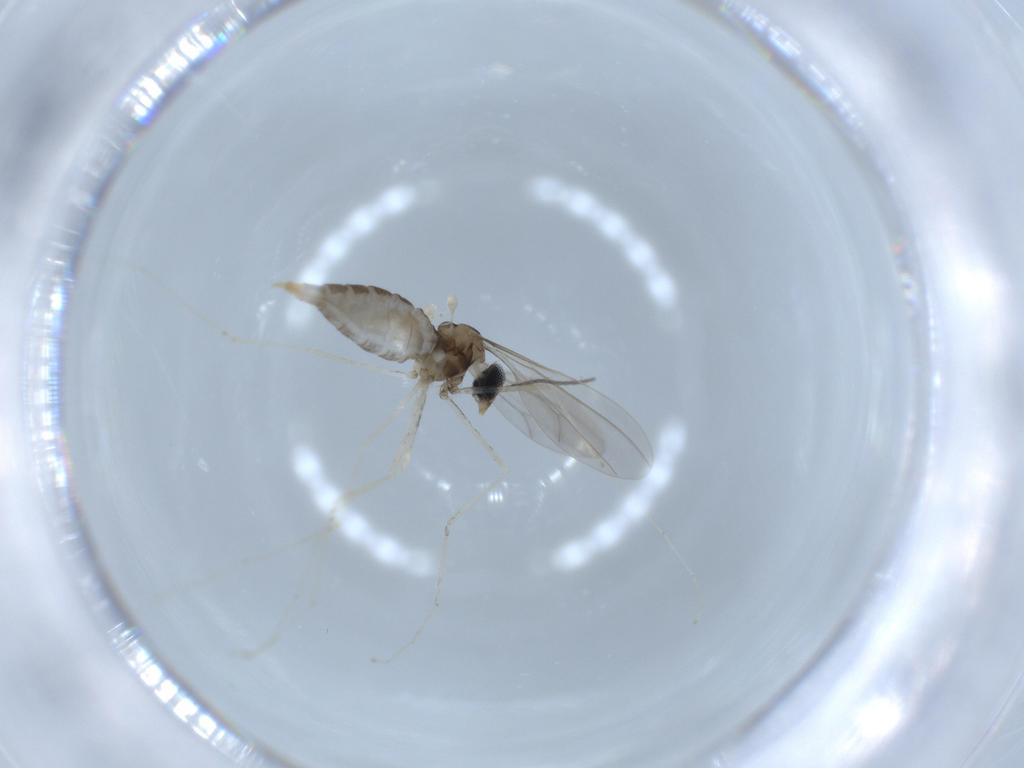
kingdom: Animalia
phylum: Arthropoda
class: Insecta
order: Diptera
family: Cecidomyiidae
